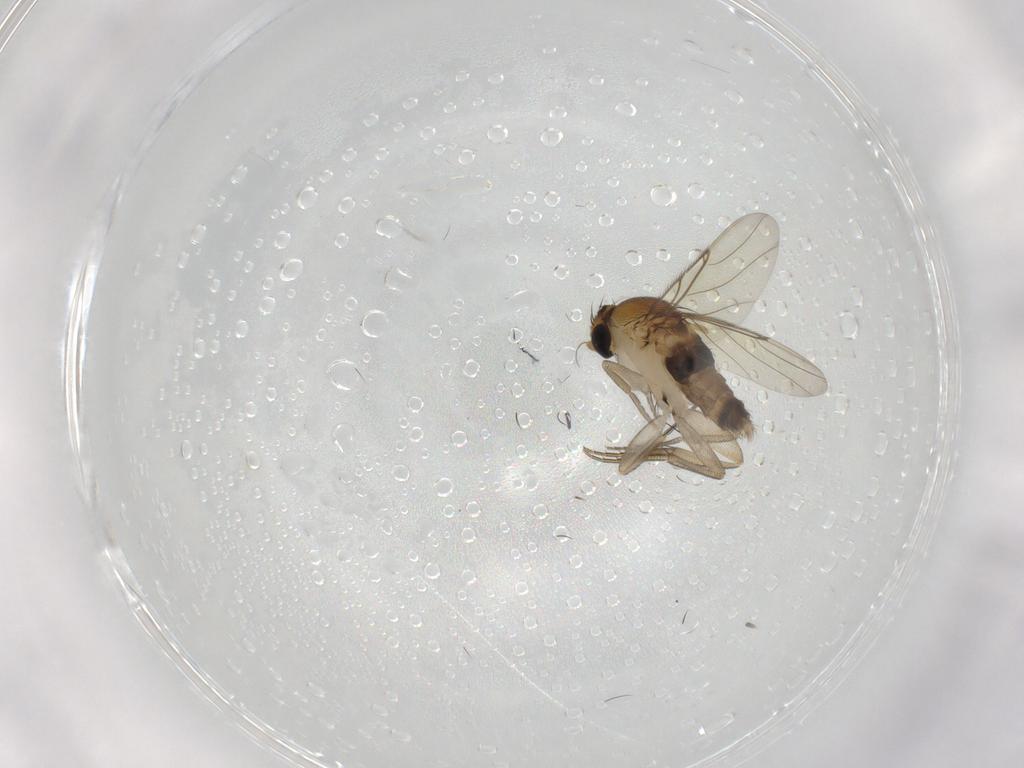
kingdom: Animalia
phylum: Arthropoda
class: Insecta
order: Diptera
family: Phoridae
